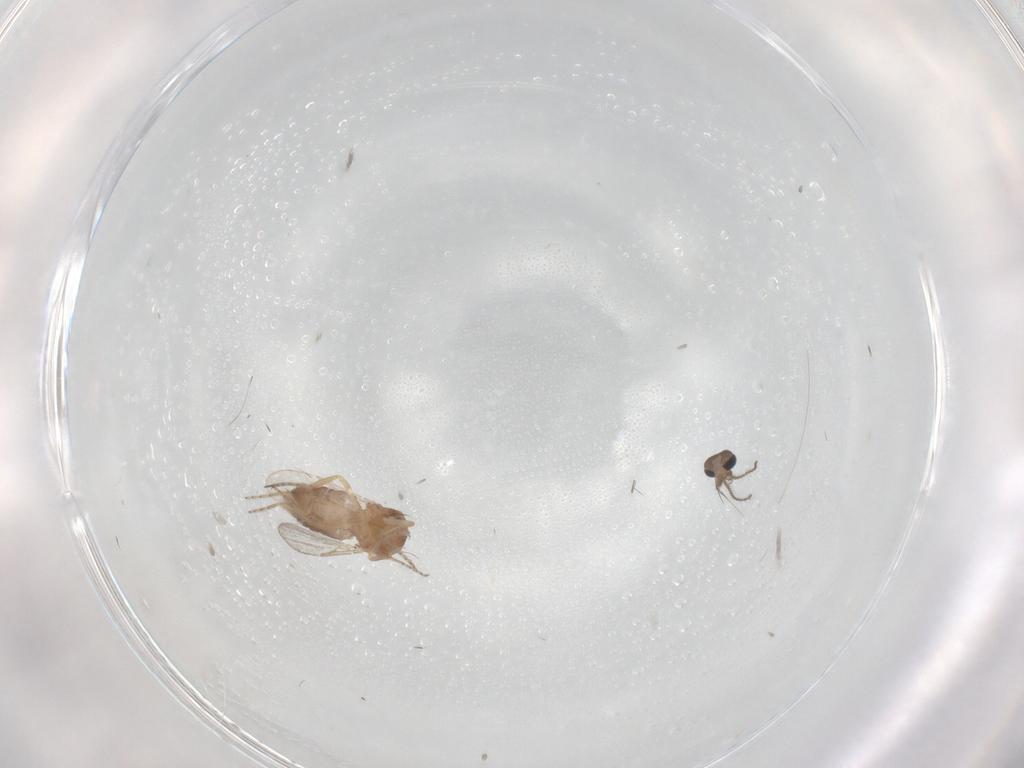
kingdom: Animalia
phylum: Arthropoda
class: Insecta
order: Diptera
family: Ceratopogonidae
